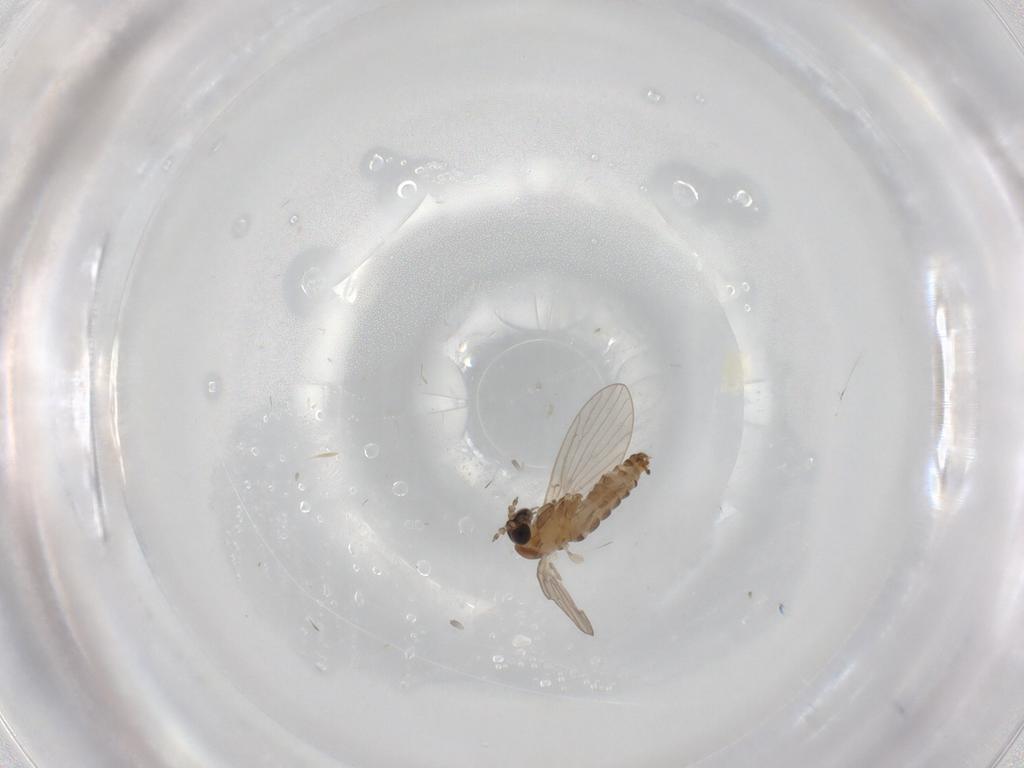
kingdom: Animalia
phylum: Arthropoda
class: Insecta
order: Diptera
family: Psychodidae
